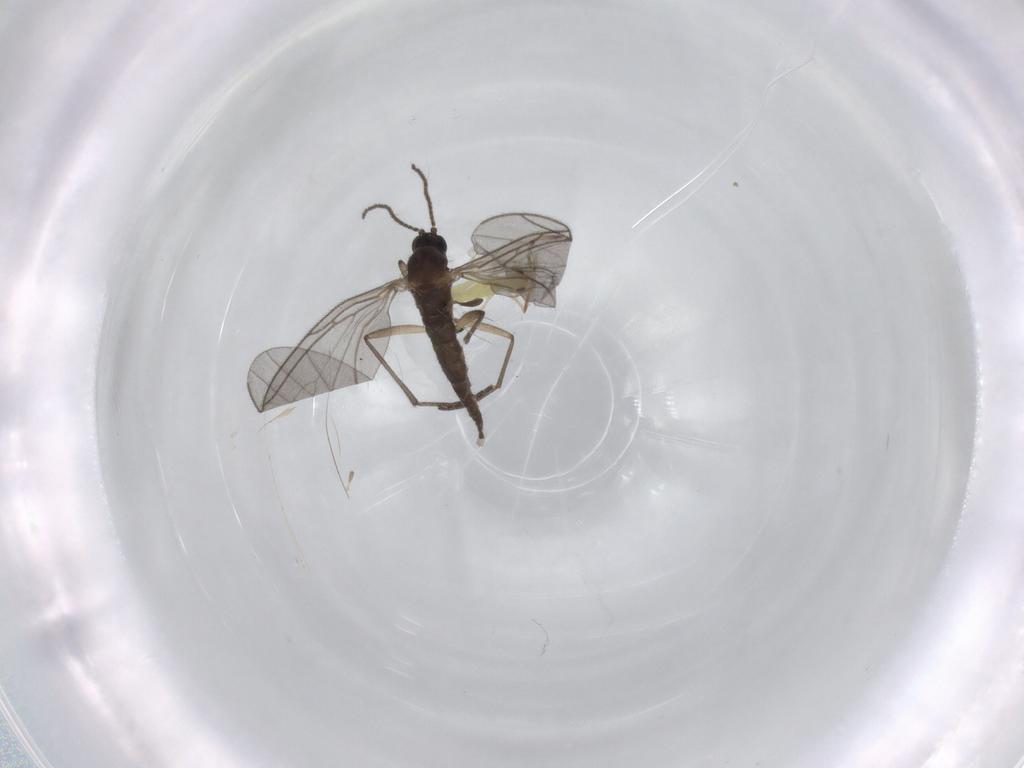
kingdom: Animalia
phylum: Arthropoda
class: Insecta
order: Diptera
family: Sciaridae
